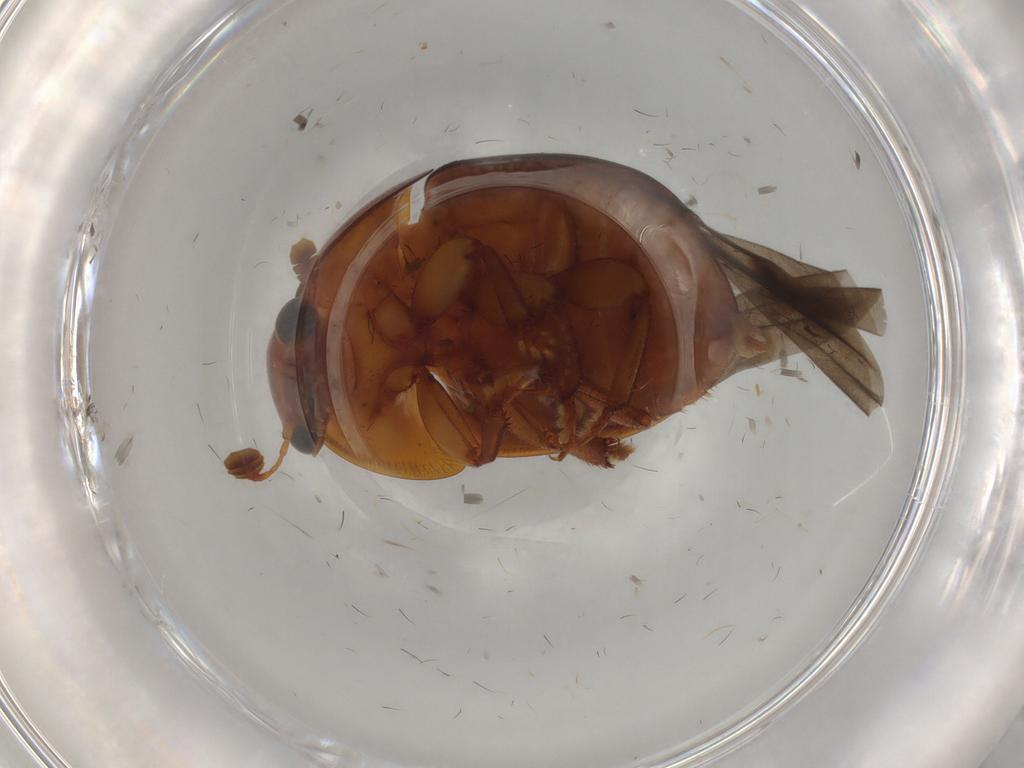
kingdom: Animalia
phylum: Arthropoda
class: Insecta
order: Coleoptera
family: Nitidulidae
